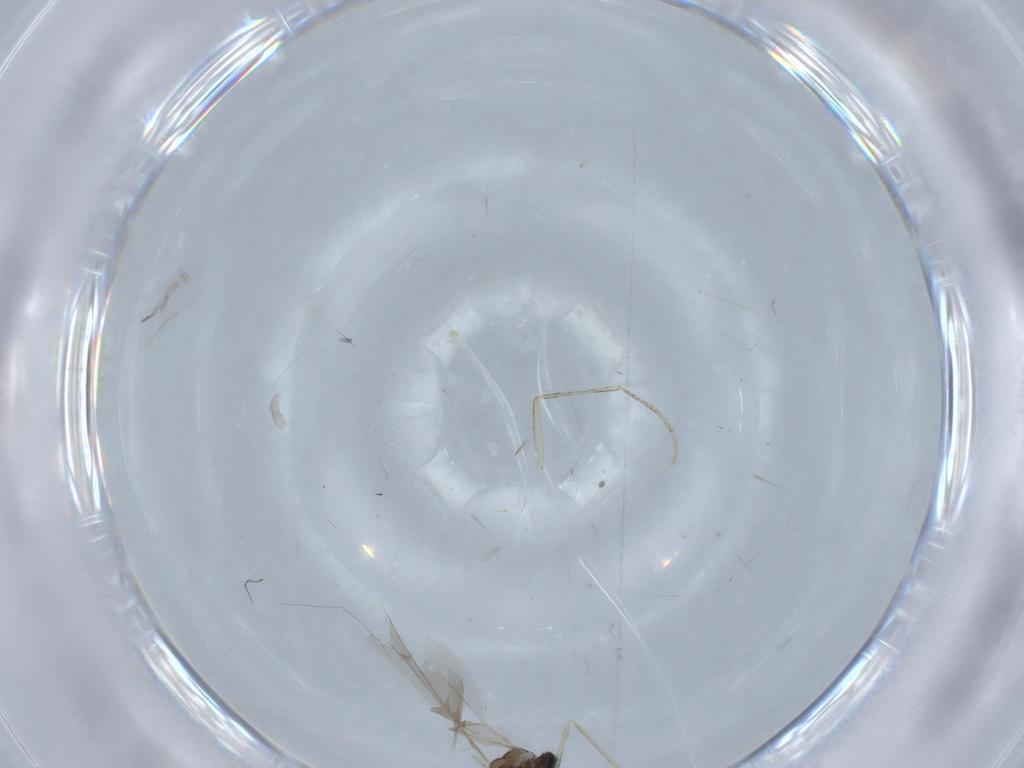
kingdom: Animalia
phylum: Arthropoda
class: Insecta
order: Diptera
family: Psychodidae
